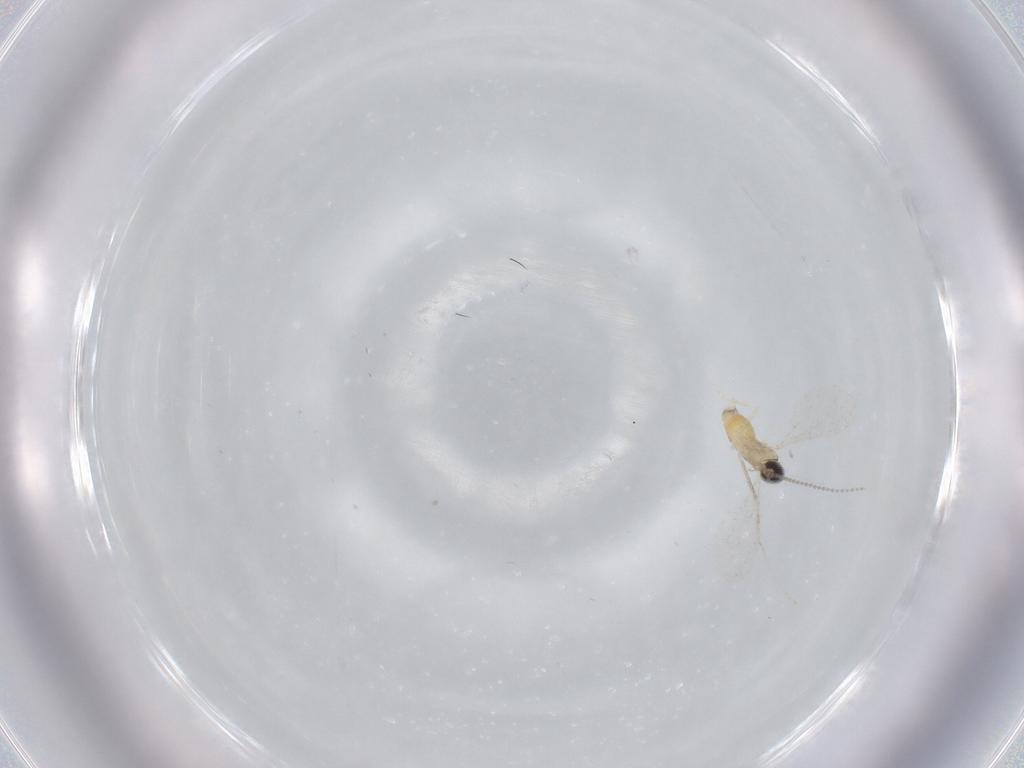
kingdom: Animalia
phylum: Arthropoda
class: Insecta
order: Diptera
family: Cecidomyiidae
